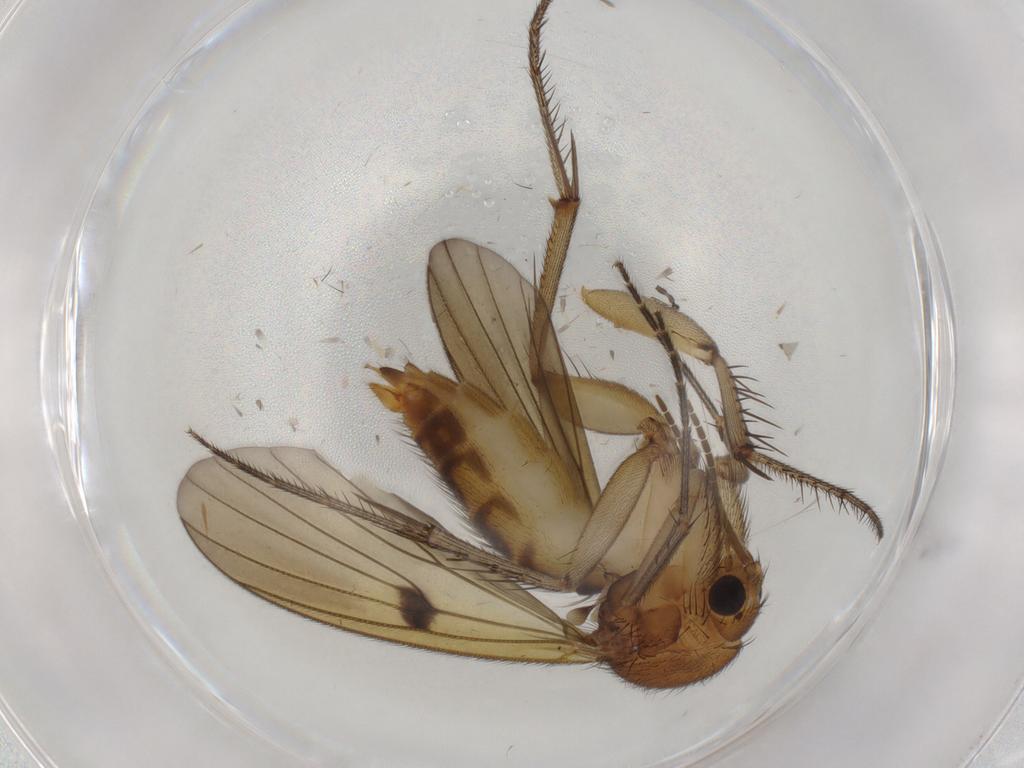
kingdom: Animalia
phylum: Arthropoda
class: Insecta
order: Diptera
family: Mycetophilidae
